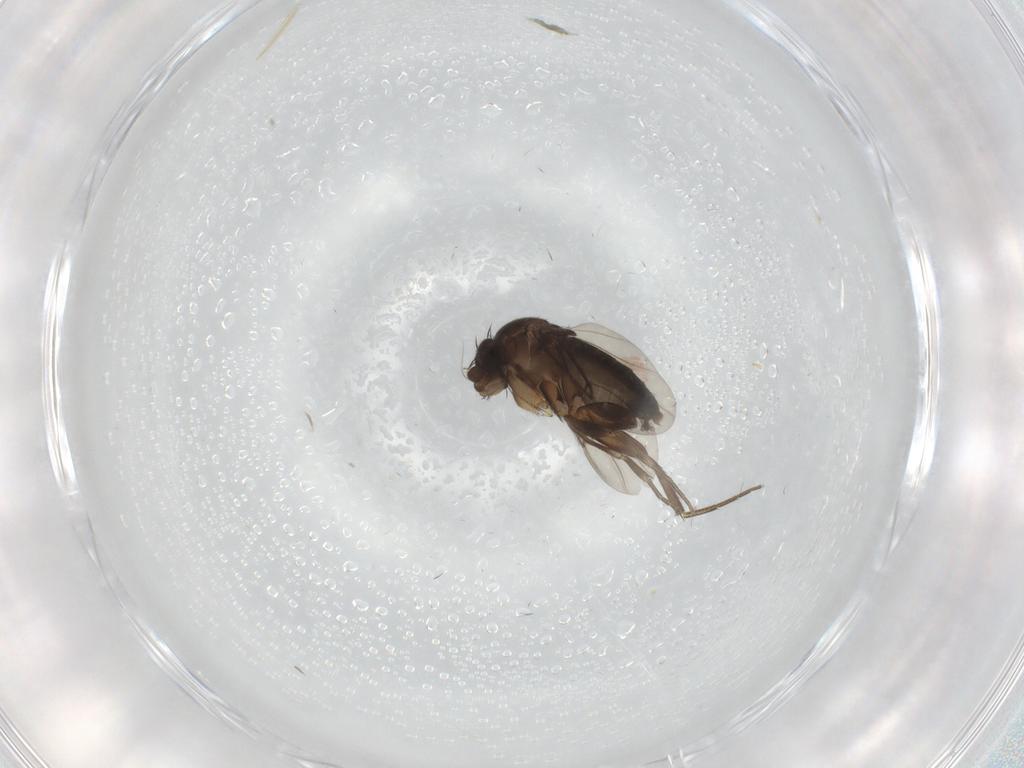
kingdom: Animalia
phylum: Arthropoda
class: Insecta
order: Diptera
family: Phoridae
